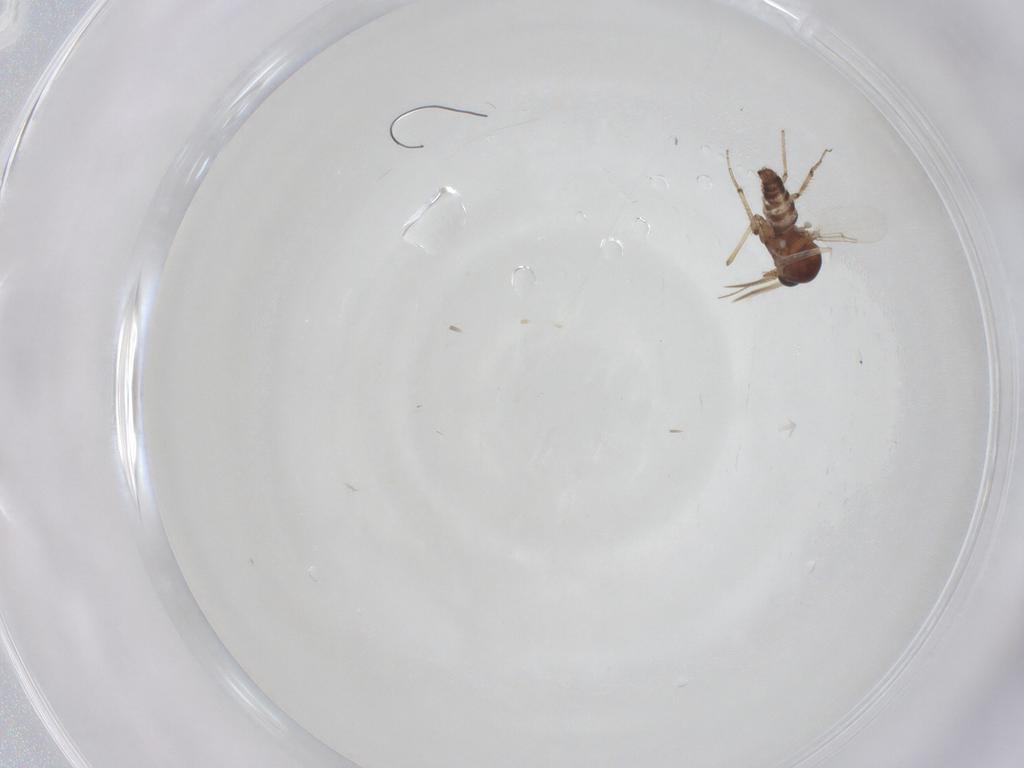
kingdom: Animalia
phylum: Arthropoda
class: Insecta
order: Diptera
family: Ceratopogonidae
